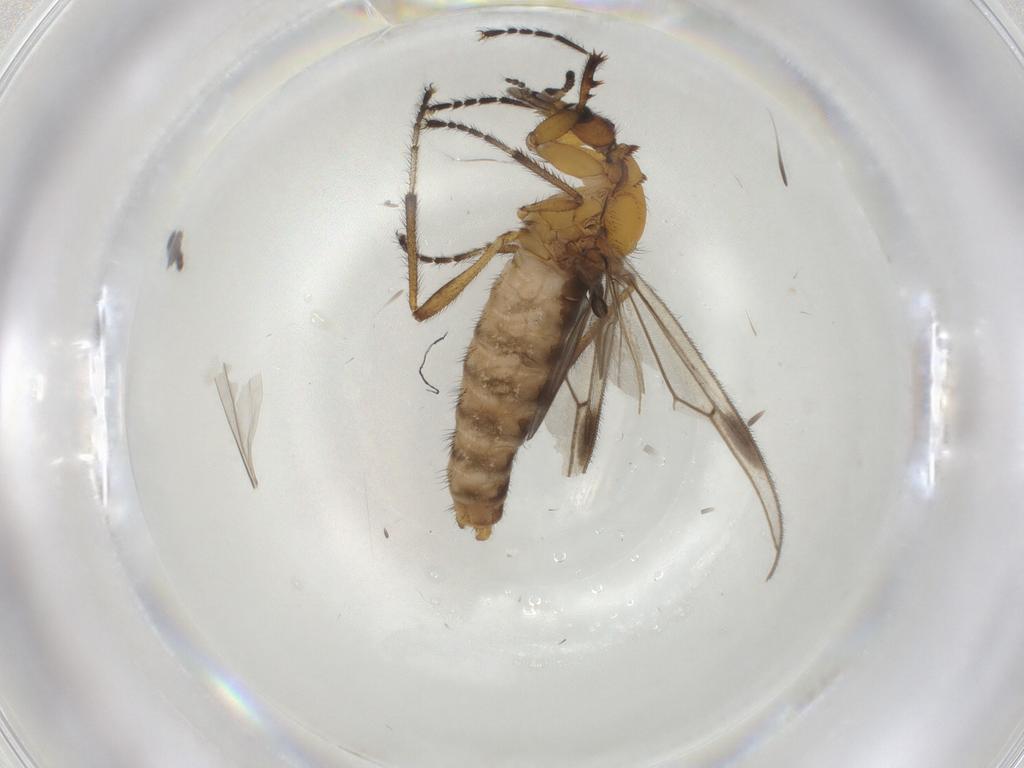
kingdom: Animalia
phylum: Arthropoda
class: Insecta
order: Diptera
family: Bibionidae
